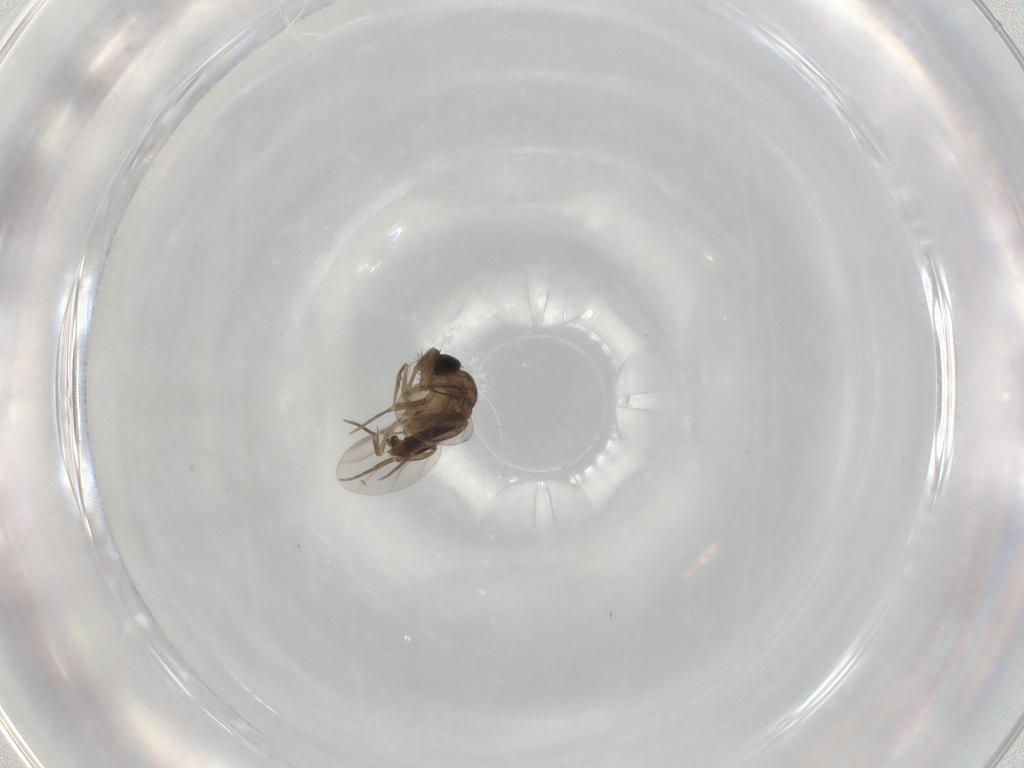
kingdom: Animalia
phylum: Arthropoda
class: Insecta
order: Diptera
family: Phoridae
